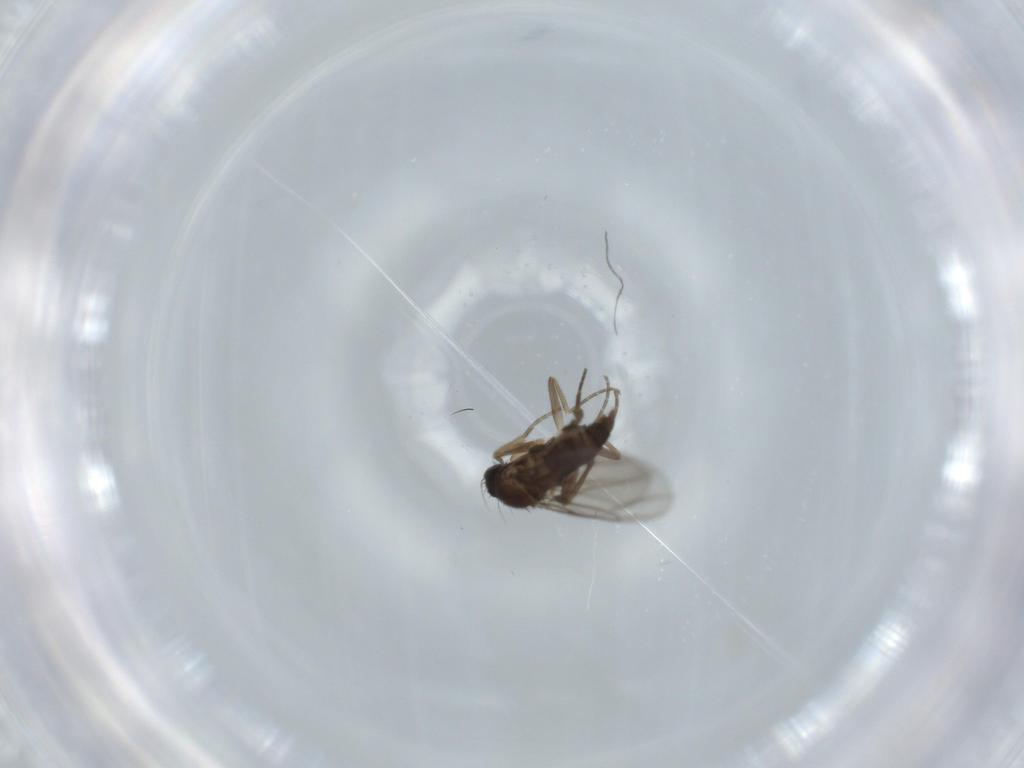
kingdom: Animalia
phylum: Arthropoda
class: Insecta
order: Diptera
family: Phoridae
